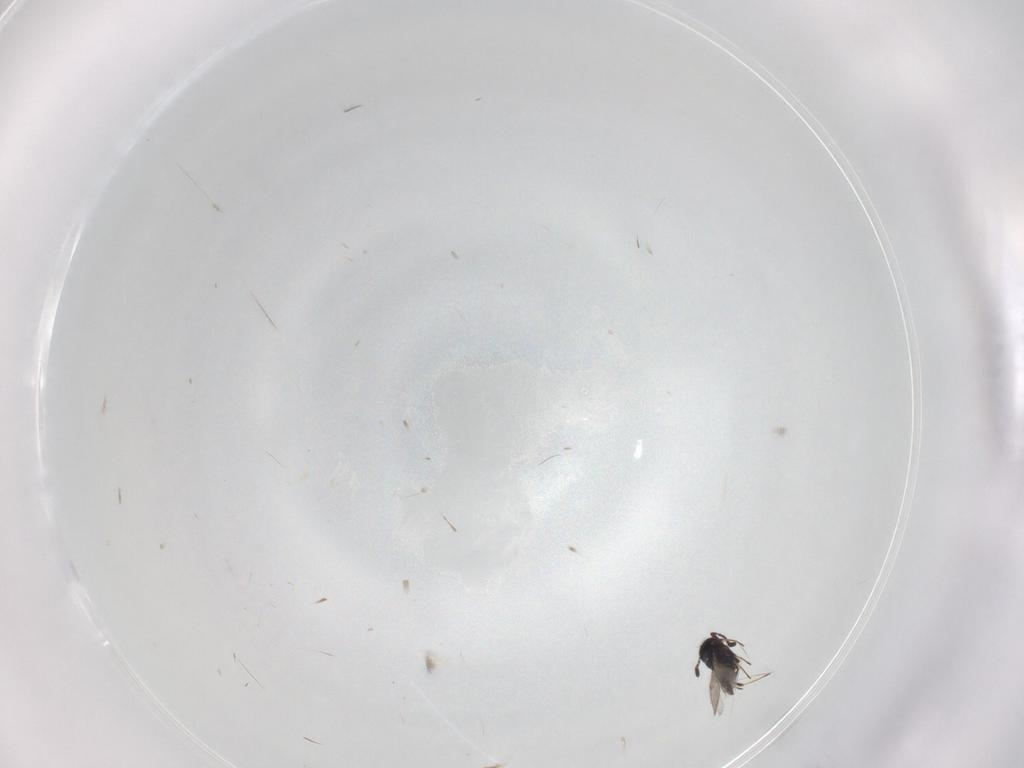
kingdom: Animalia
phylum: Arthropoda
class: Insecta
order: Hymenoptera
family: Scelionidae
